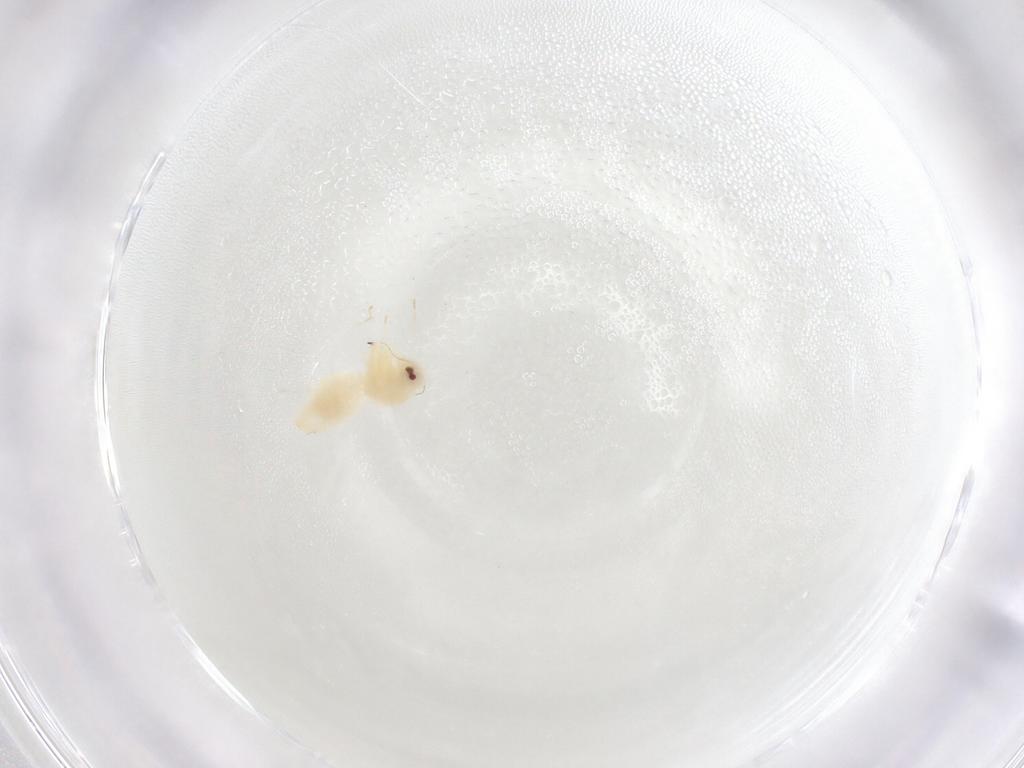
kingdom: Animalia
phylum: Arthropoda
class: Insecta
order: Hemiptera
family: Aleyrodidae
